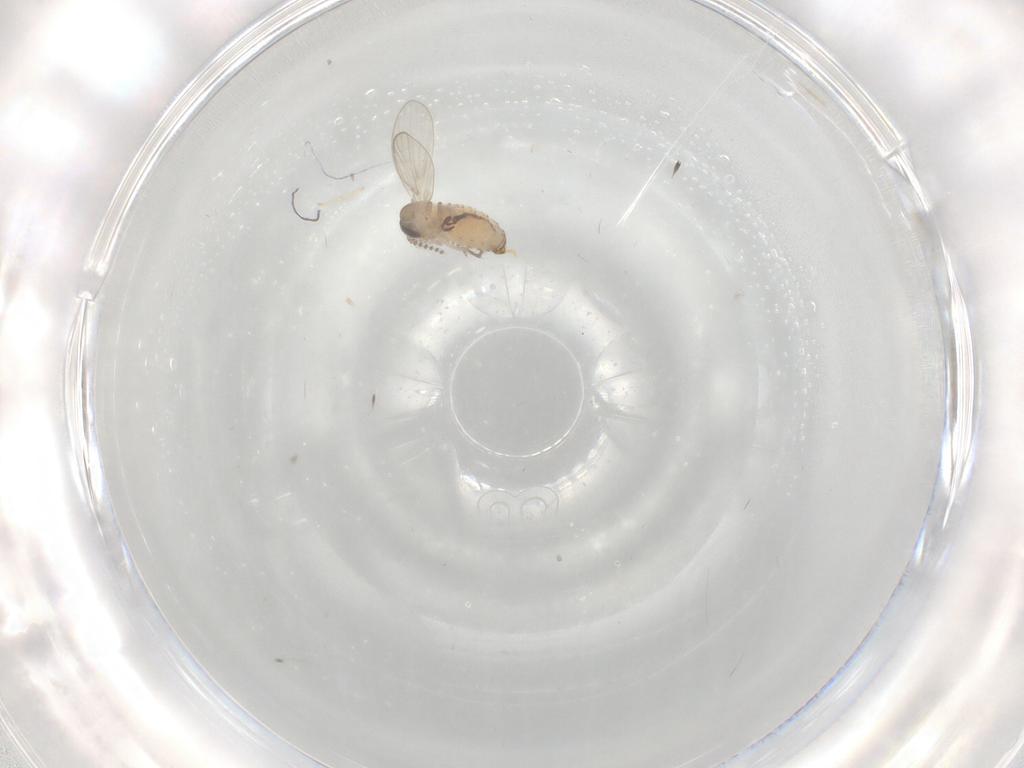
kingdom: Animalia
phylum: Arthropoda
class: Insecta
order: Diptera
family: Psychodidae
